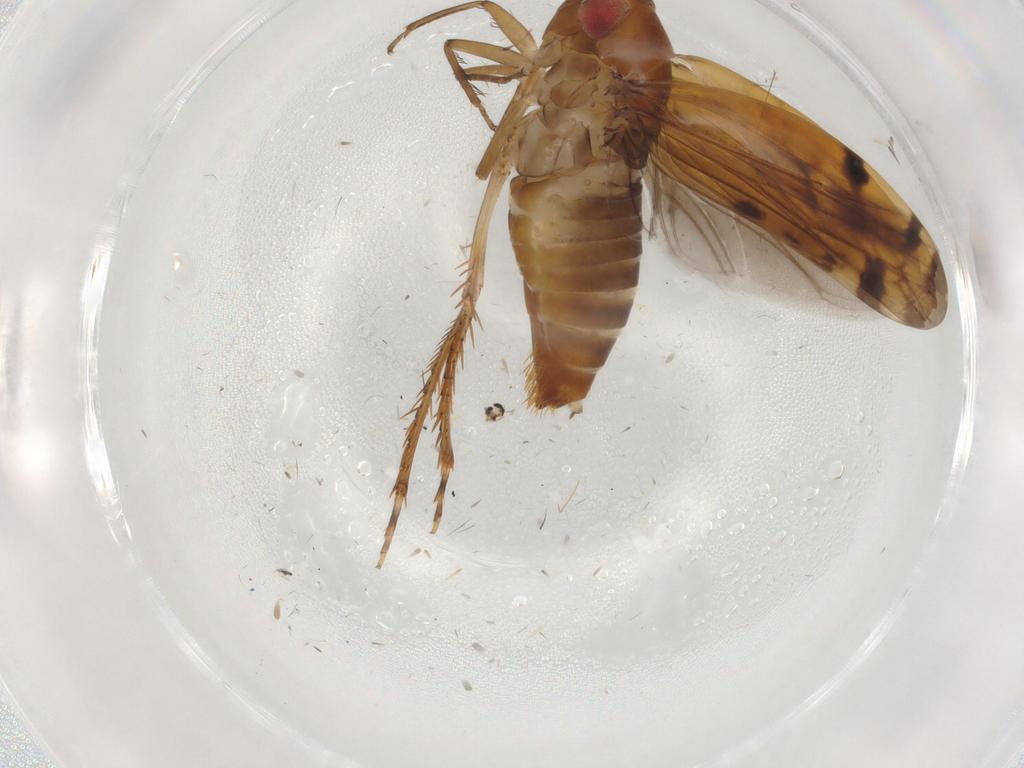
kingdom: Animalia
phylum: Arthropoda
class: Insecta
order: Hemiptera
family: Cicadellidae
